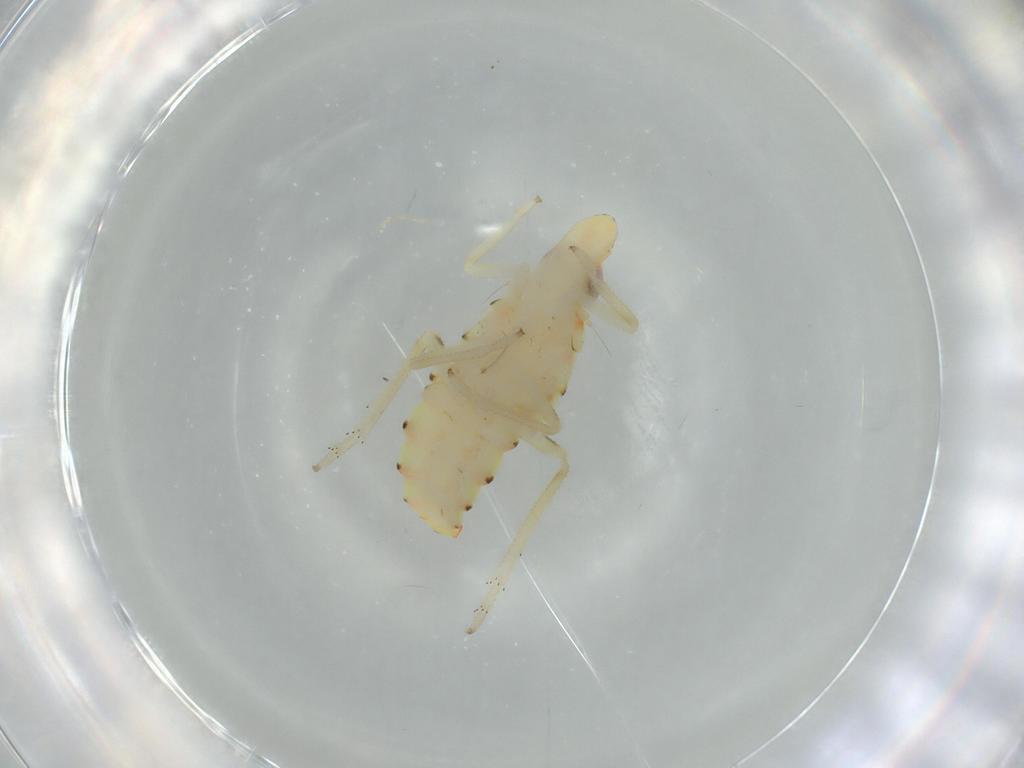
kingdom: Animalia
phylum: Arthropoda
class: Insecta
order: Hemiptera
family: Tropiduchidae
